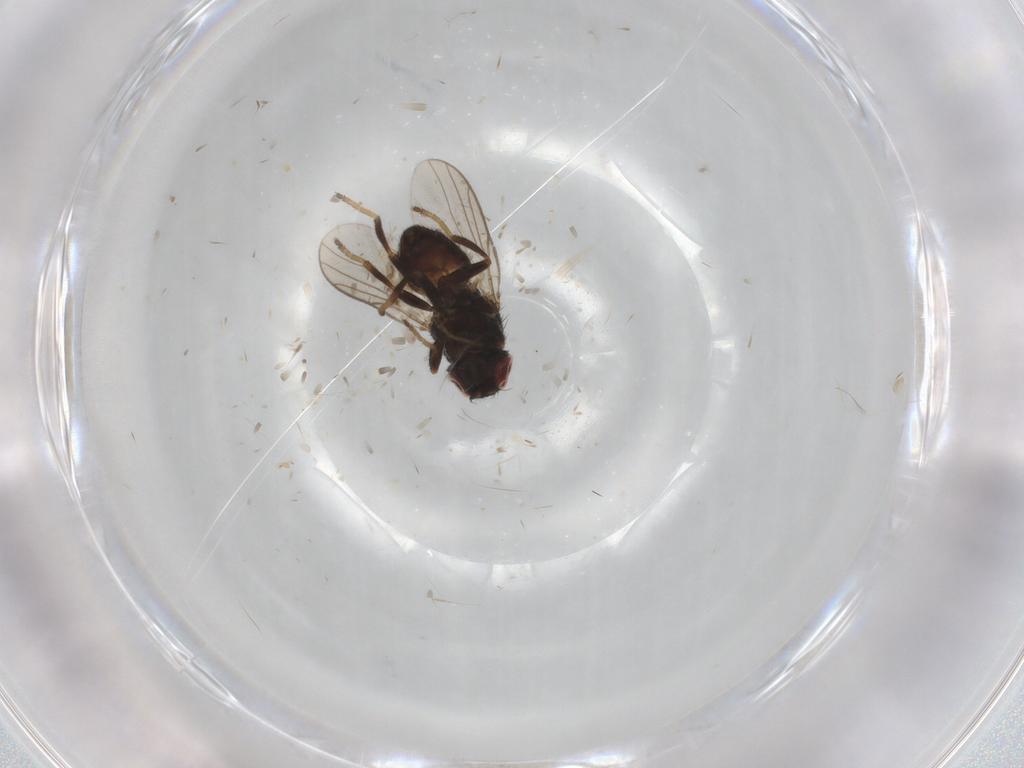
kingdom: Animalia
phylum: Arthropoda
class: Insecta
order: Diptera
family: Chloropidae
